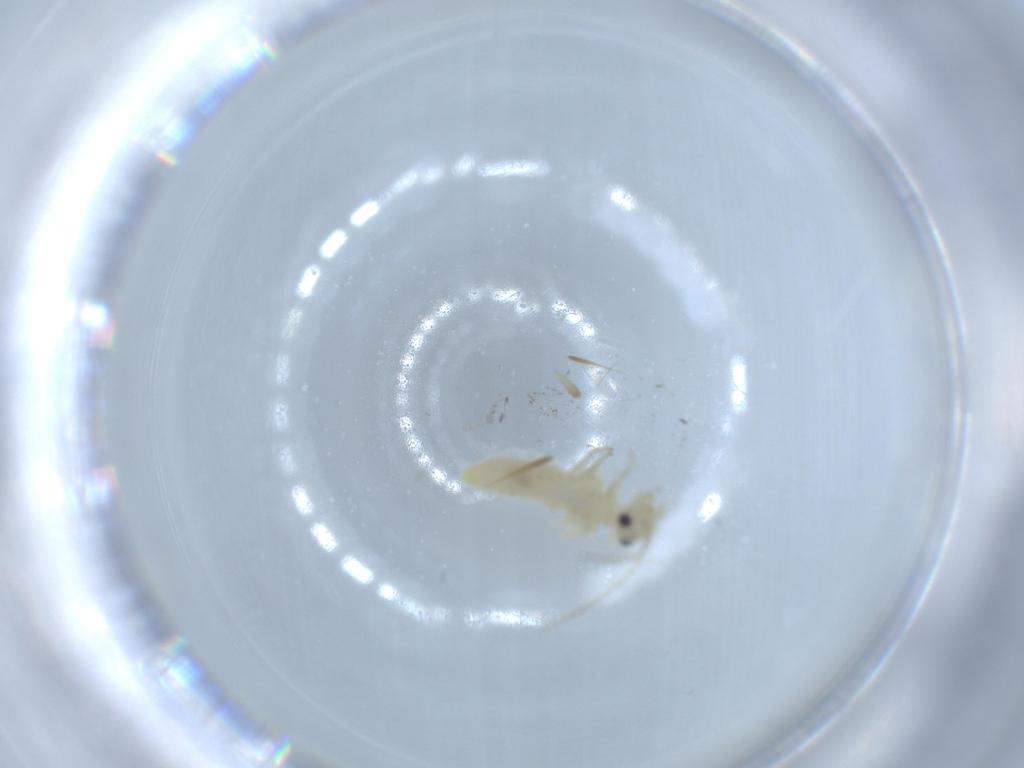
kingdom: Animalia
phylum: Arthropoda
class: Insecta
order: Psocodea
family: Caeciliusidae
